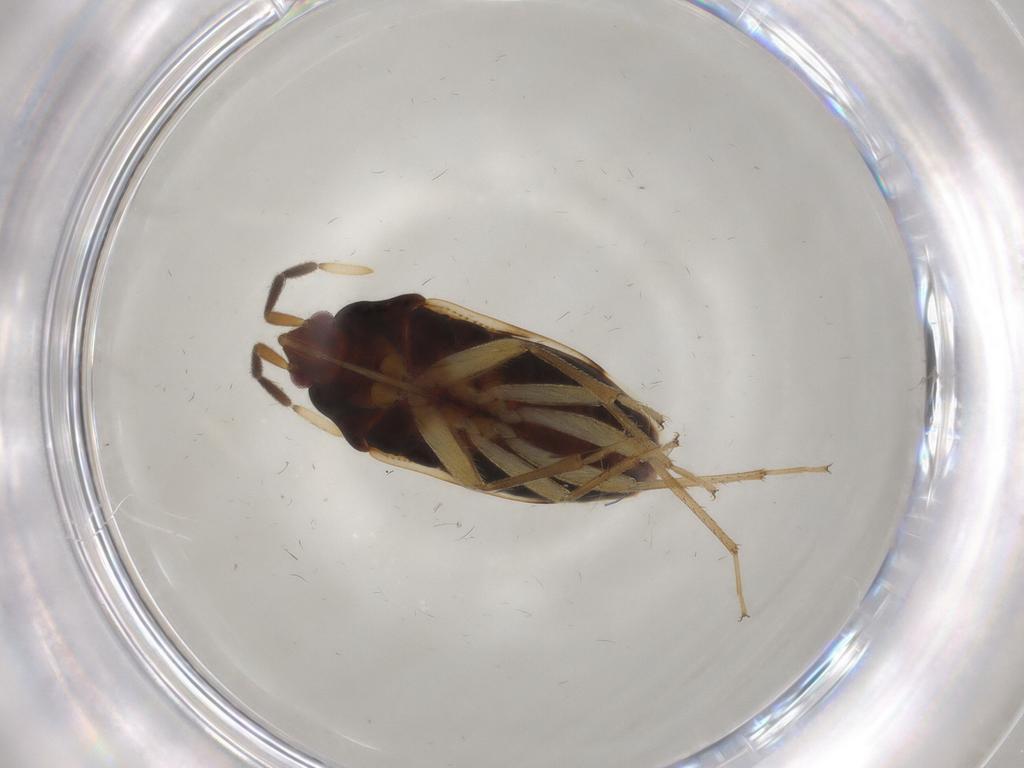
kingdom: Animalia
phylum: Arthropoda
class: Insecta
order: Hemiptera
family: Rhyparochromidae
